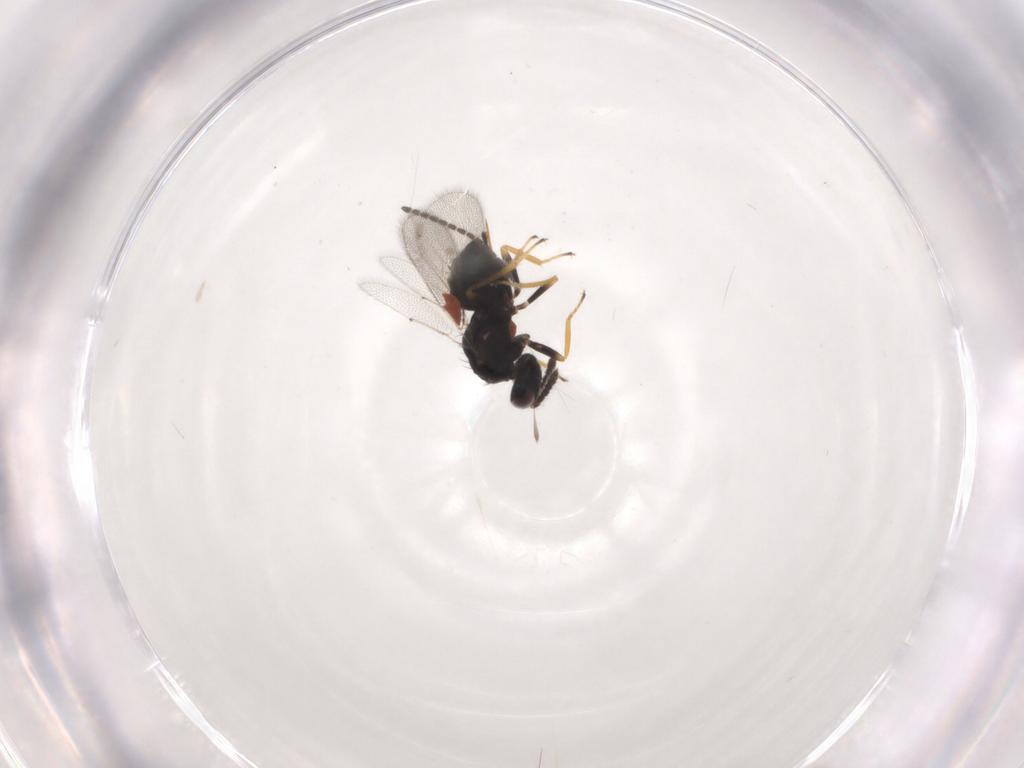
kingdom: Animalia
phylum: Arthropoda
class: Insecta
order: Hymenoptera
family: Eulophidae
